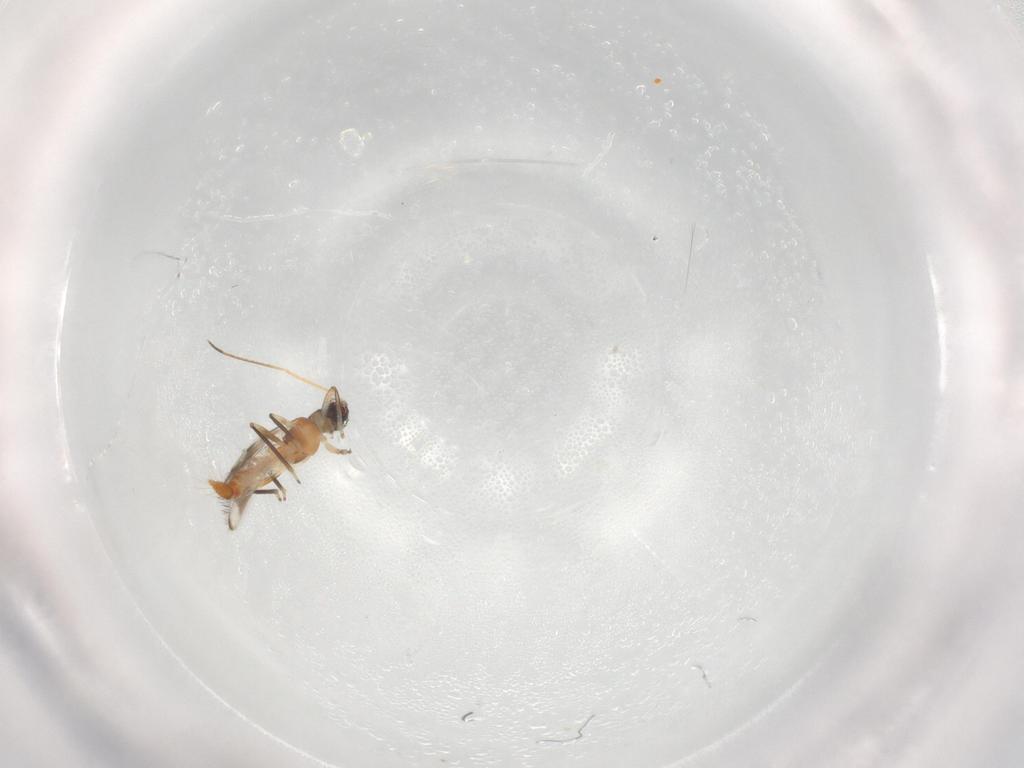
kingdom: Animalia
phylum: Arthropoda
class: Insecta
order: Thysanoptera
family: Aeolothripidae
